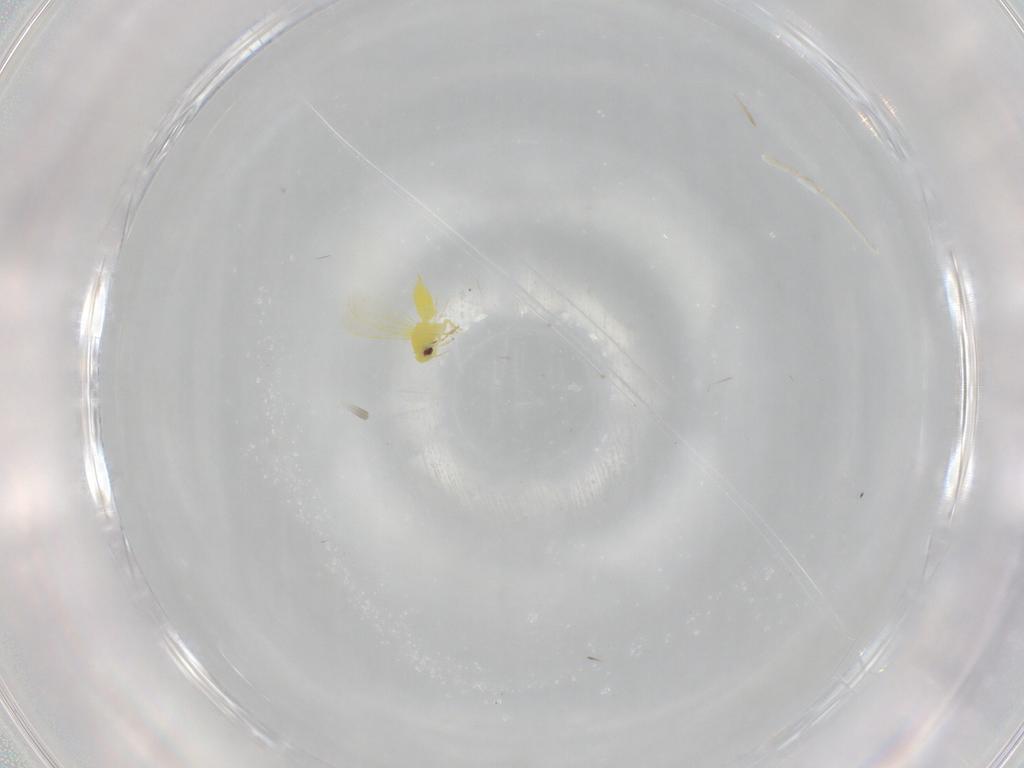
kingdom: Animalia
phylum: Arthropoda
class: Insecta
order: Hemiptera
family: Aleyrodidae
